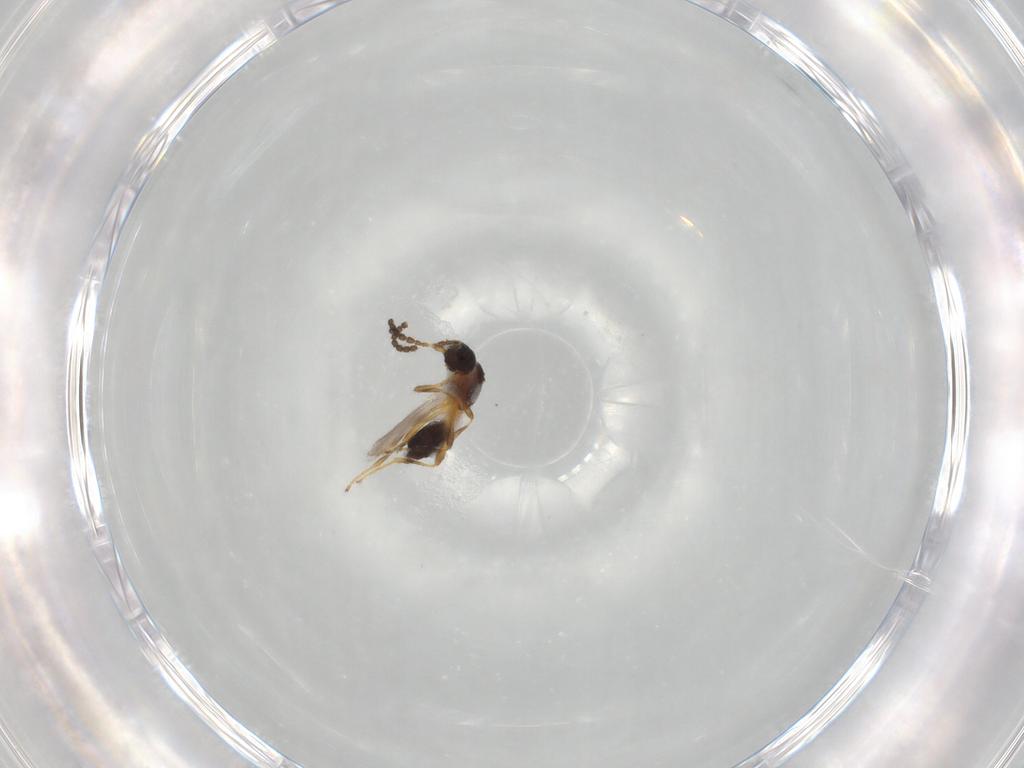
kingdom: Animalia
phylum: Arthropoda
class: Insecta
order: Hymenoptera
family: Braconidae
